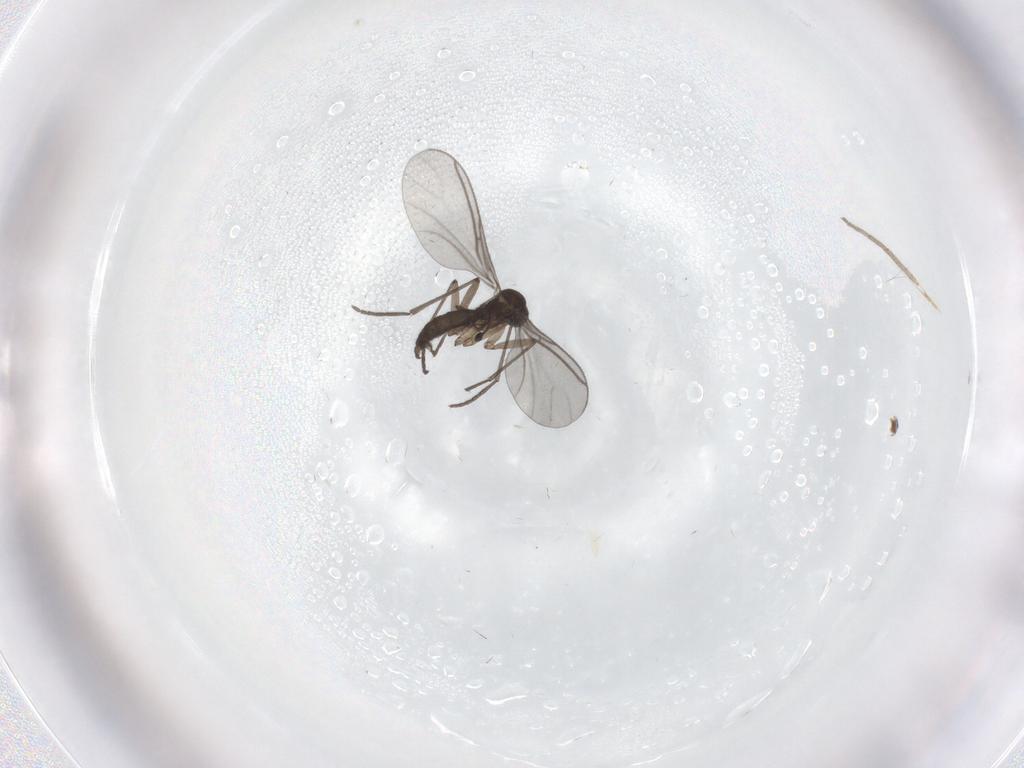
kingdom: Animalia
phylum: Arthropoda
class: Insecta
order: Diptera
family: Sciaridae
